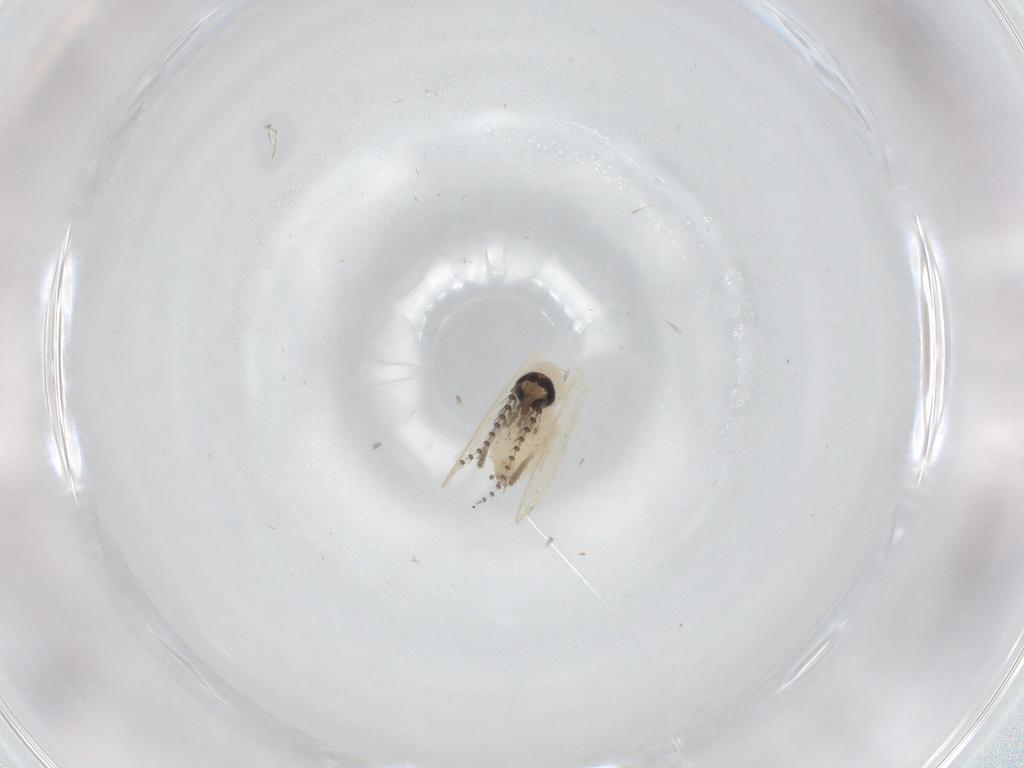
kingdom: Animalia
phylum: Arthropoda
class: Insecta
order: Diptera
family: Psychodidae
